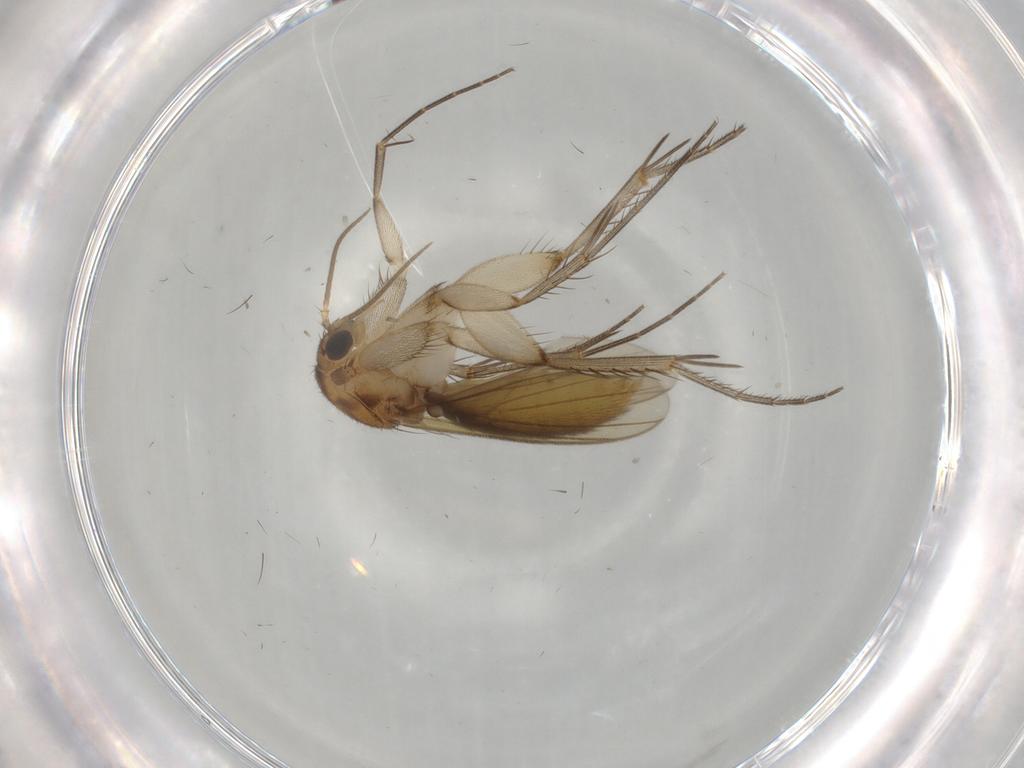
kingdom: Animalia
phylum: Arthropoda
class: Insecta
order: Diptera
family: Mycetophilidae
